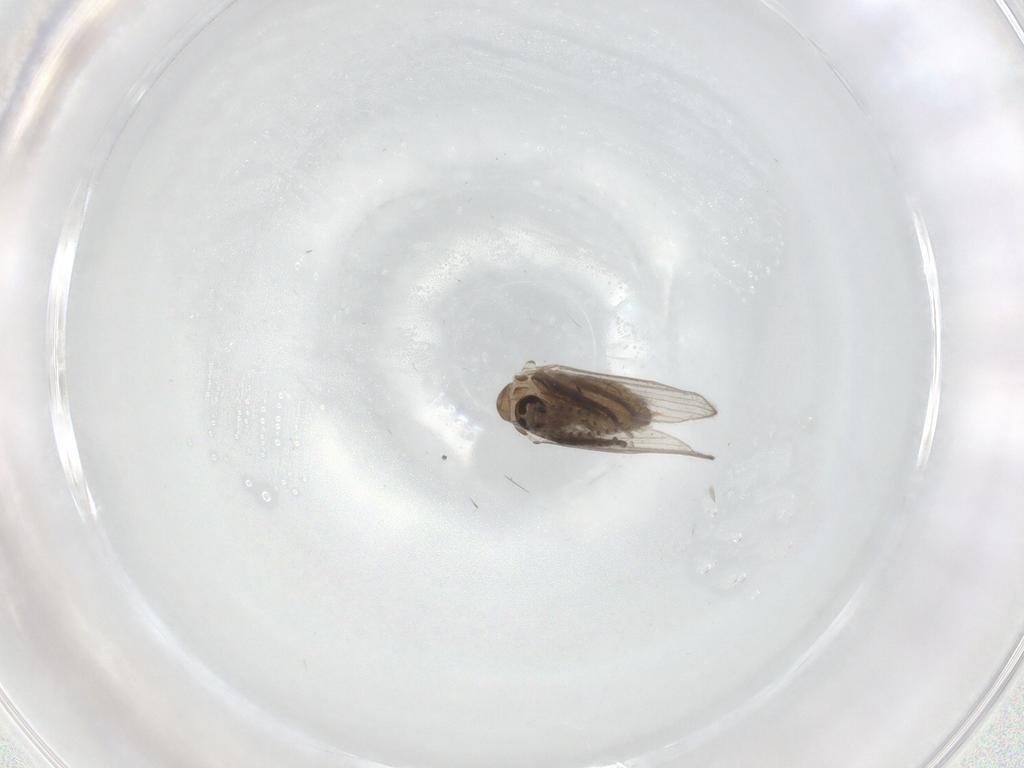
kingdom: Animalia
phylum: Arthropoda
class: Insecta
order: Diptera
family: Psychodidae
